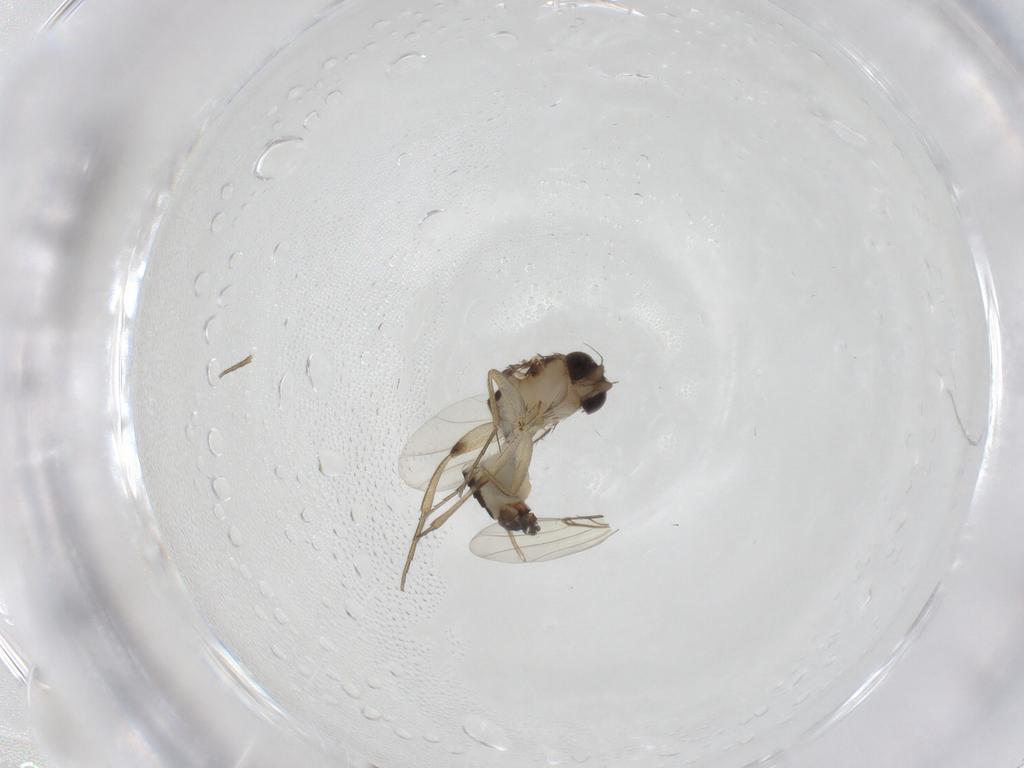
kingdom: Animalia
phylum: Arthropoda
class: Insecta
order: Diptera
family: Phoridae
